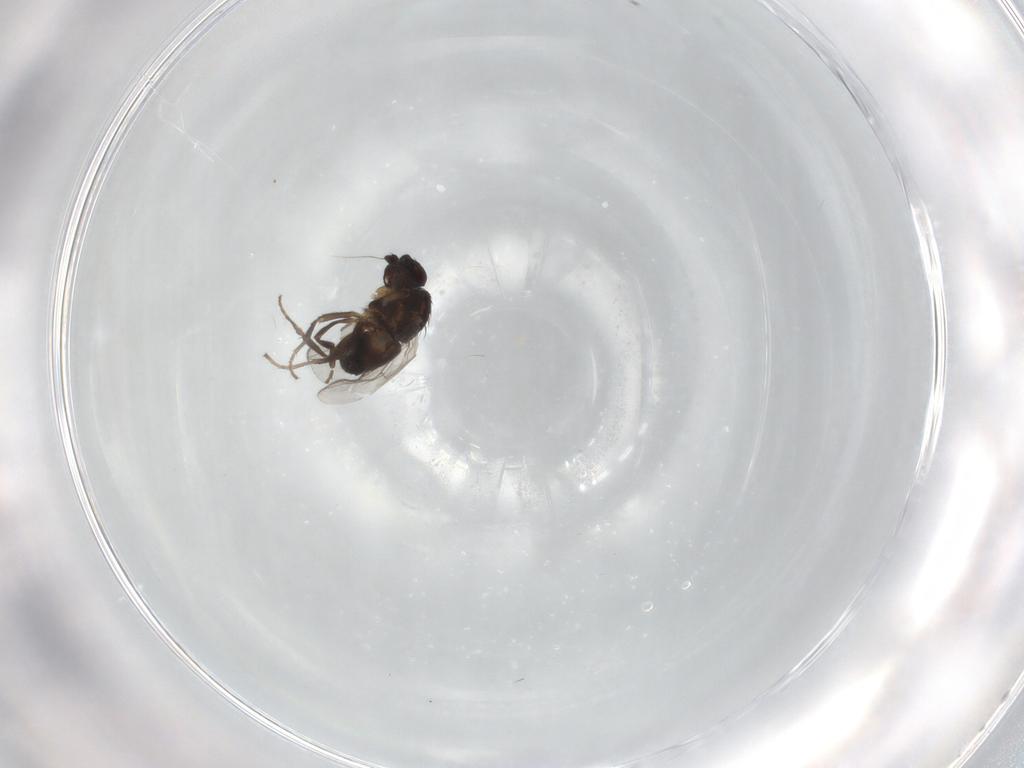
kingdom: Animalia
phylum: Arthropoda
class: Insecta
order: Diptera
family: Sphaeroceridae
